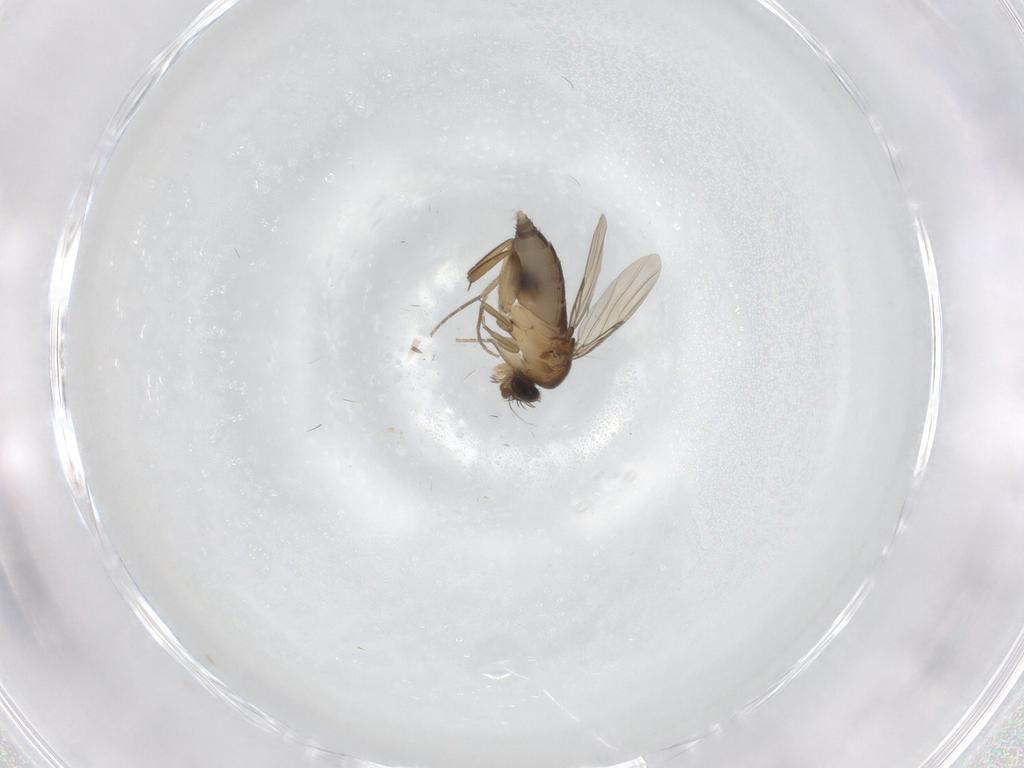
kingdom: Animalia
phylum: Arthropoda
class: Insecta
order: Diptera
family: Phoridae
